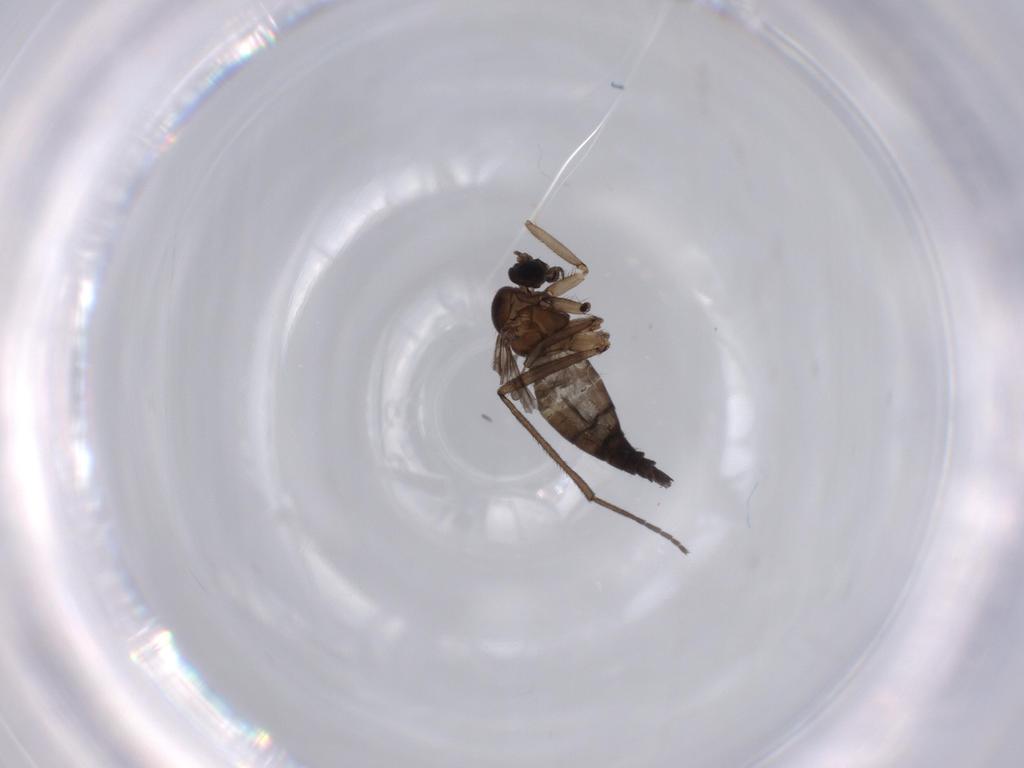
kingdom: Animalia
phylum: Arthropoda
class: Insecta
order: Diptera
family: Sciaridae
